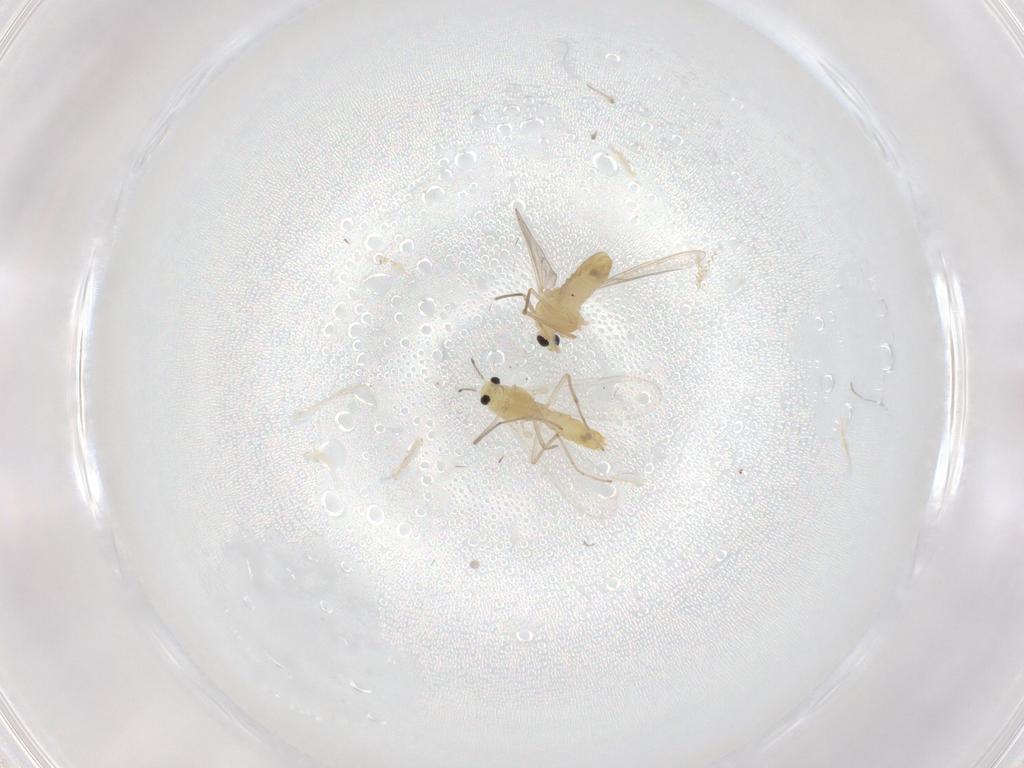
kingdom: Animalia
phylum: Arthropoda
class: Insecta
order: Diptera
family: Chironomidae
